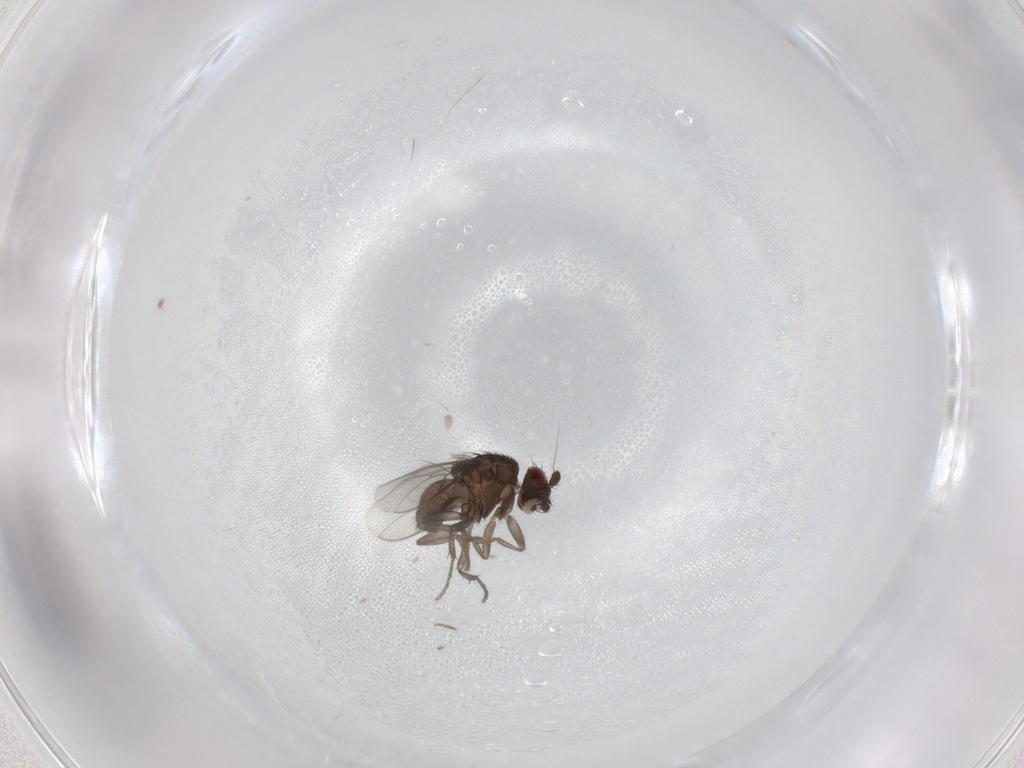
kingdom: Animalia
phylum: Arthropoda
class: Insecta
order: Diptera
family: Sphaeroceridae
